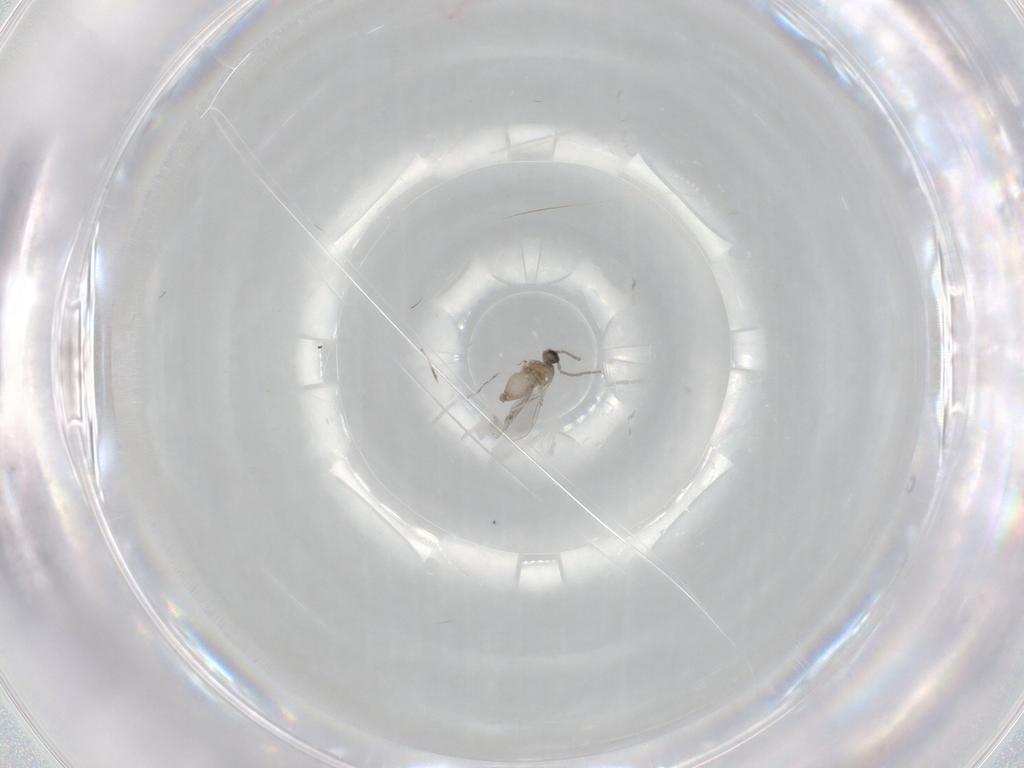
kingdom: Animalia
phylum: Arthropoda
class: Insecta
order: Diptera
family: Cecidomyiidae
